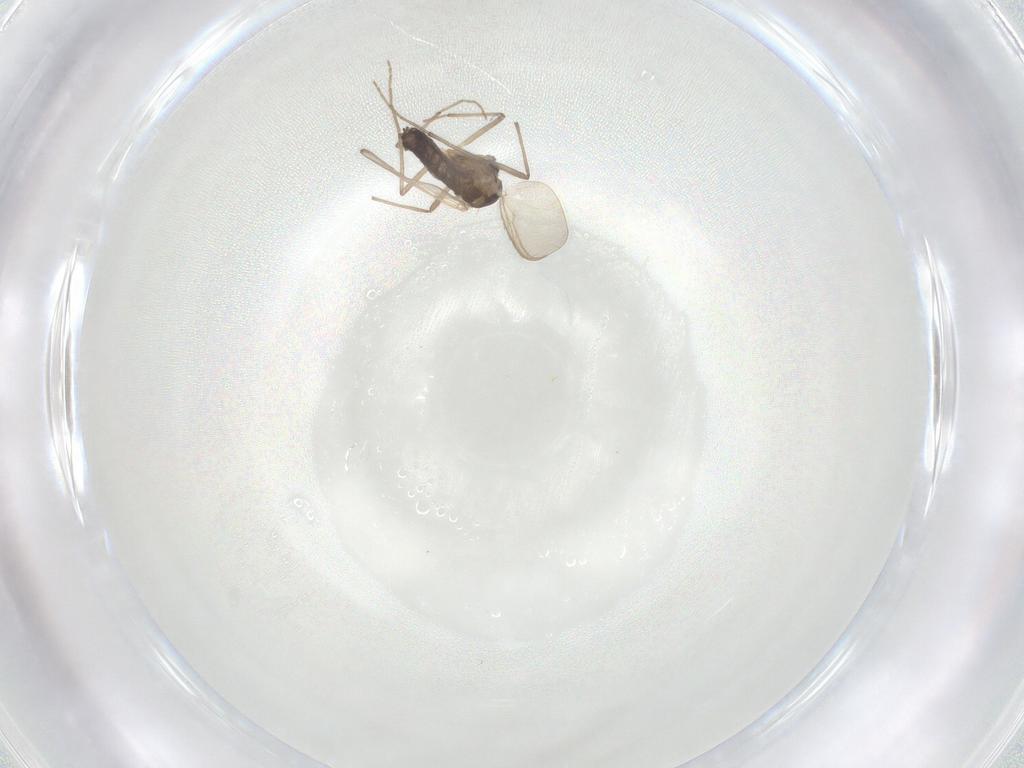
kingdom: Animalia
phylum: Arthropoda
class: Insecta
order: Diptera
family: Chironomidae
